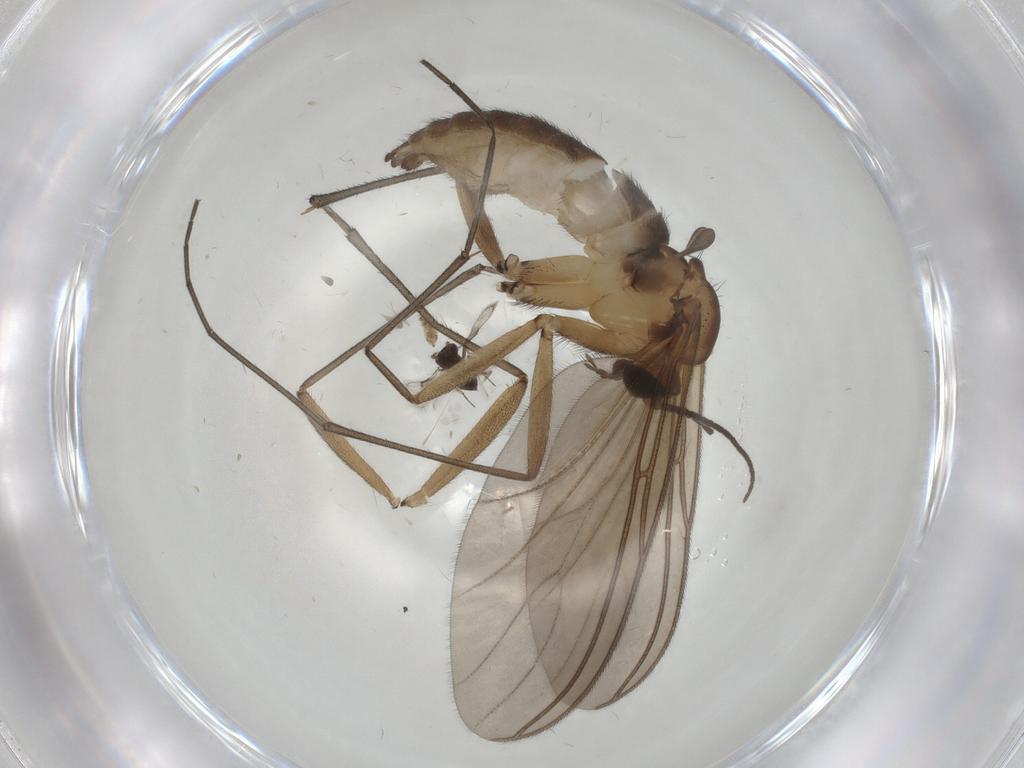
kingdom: Animalia
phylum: Arthropoda
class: Insecta
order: Diptera
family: Sciaridae
